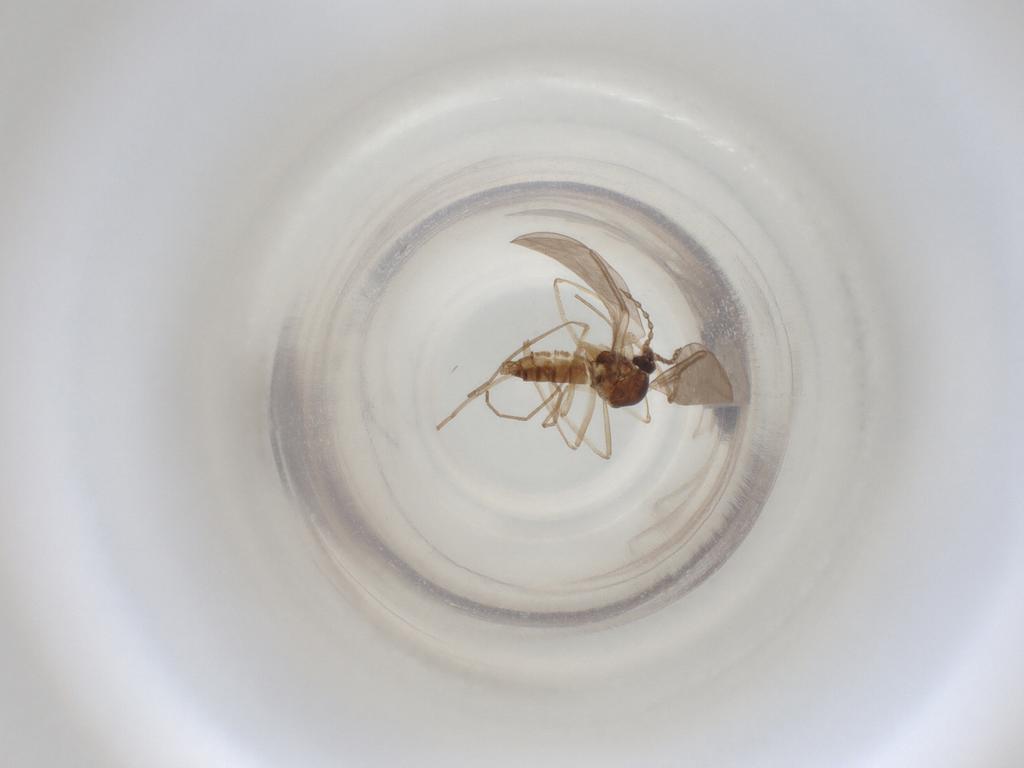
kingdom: Animalia
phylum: Arthropoda
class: Insecta
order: Diptera
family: Cecidomyiidae
